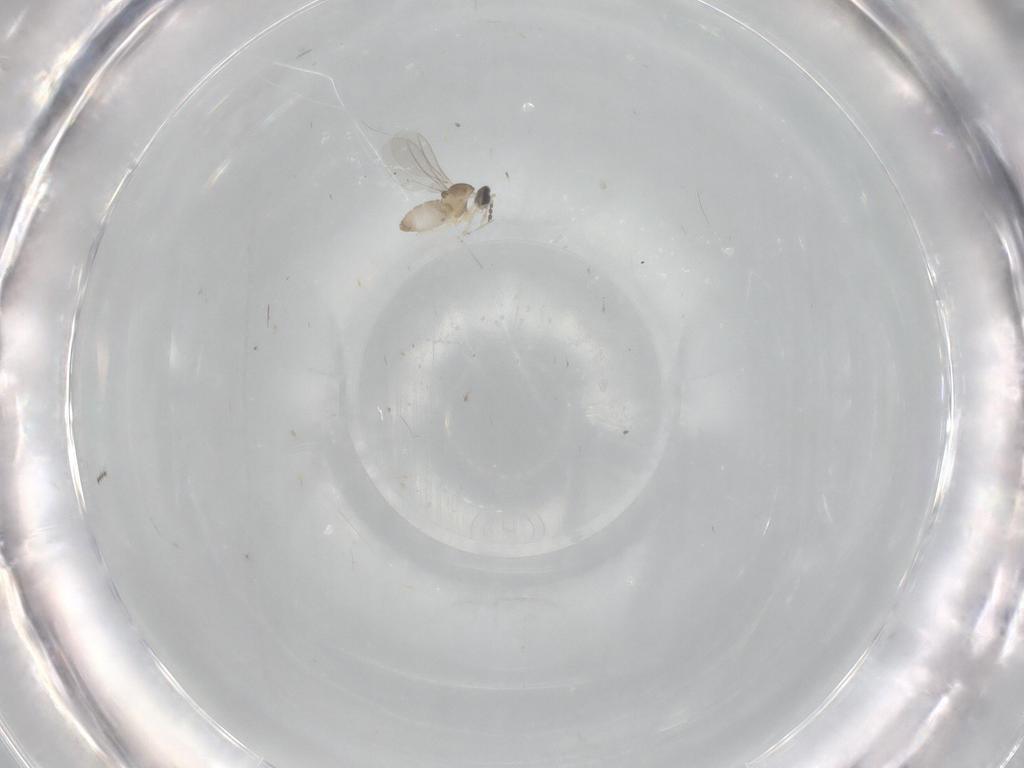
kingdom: Animalia
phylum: Arthropoda
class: Insecta
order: Diptera
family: Cecidomyiidae
